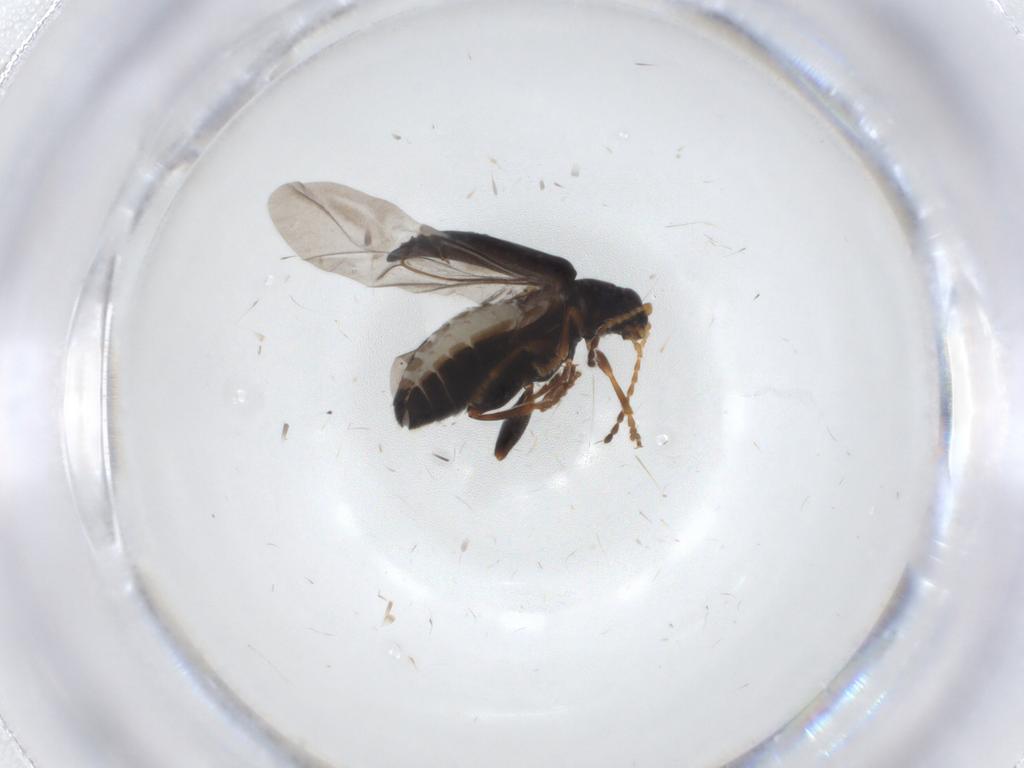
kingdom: Animalia
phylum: Arthropoda
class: Insecta
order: Coleoptera
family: Chrysomelidae
